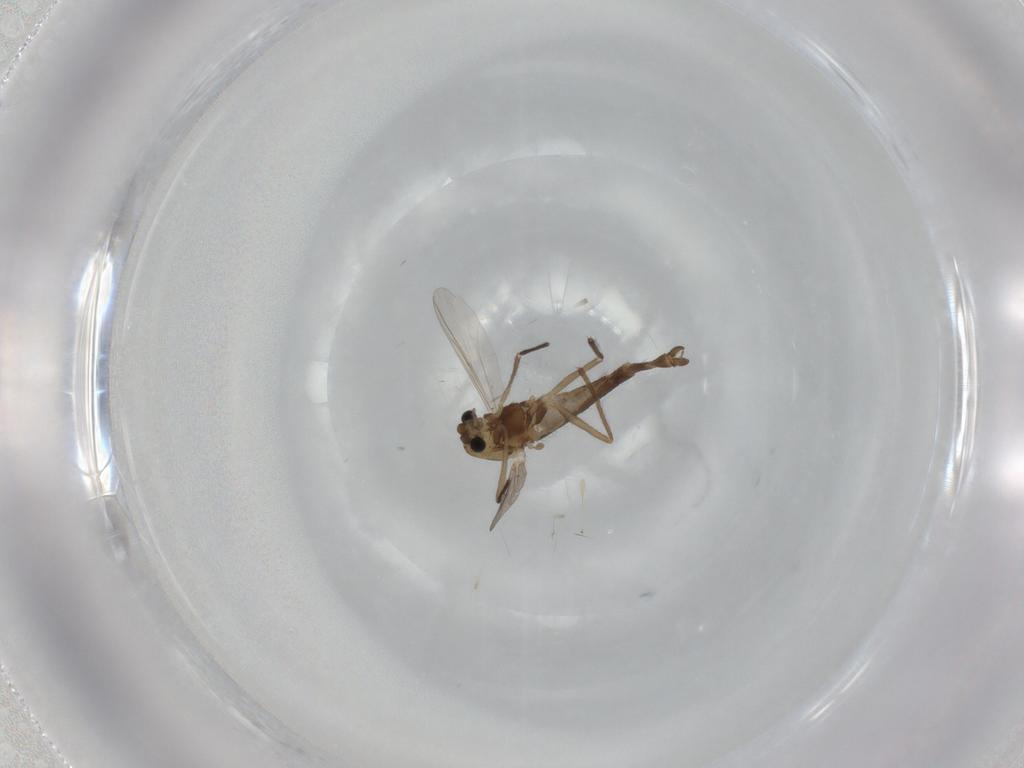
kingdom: Animalia
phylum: Arthropoda
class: Insecta
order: Diptera
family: Chironomidae
